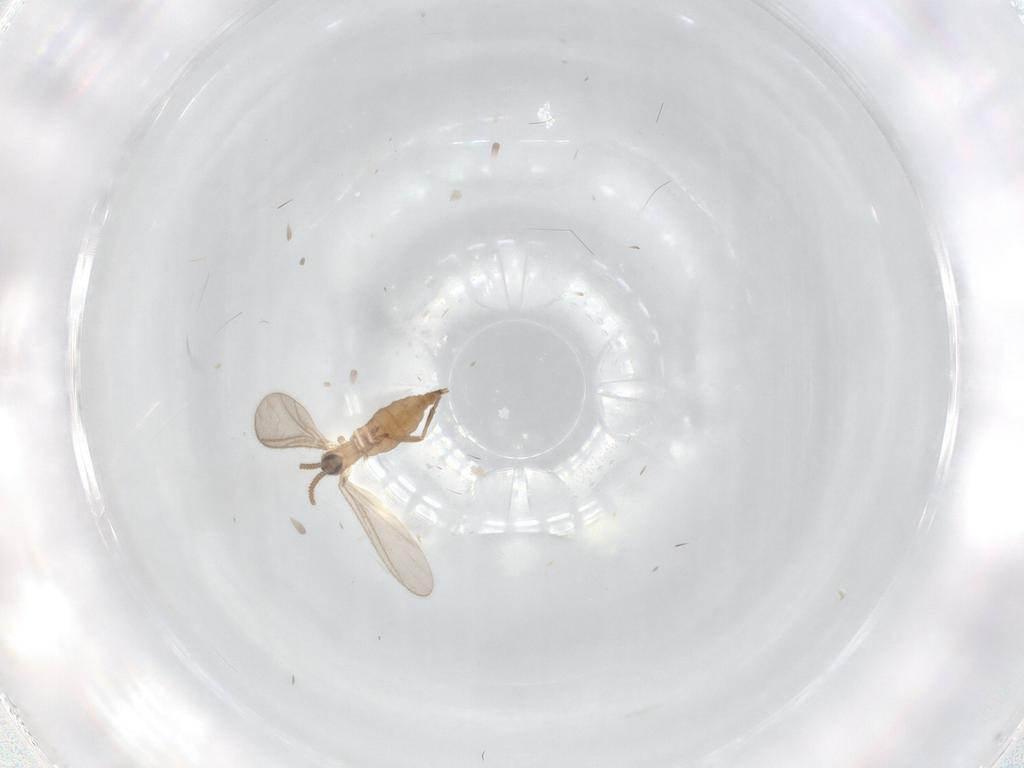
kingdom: Animalia
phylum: Arthropoda
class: Insecta
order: Diptera
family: Sciaridae
